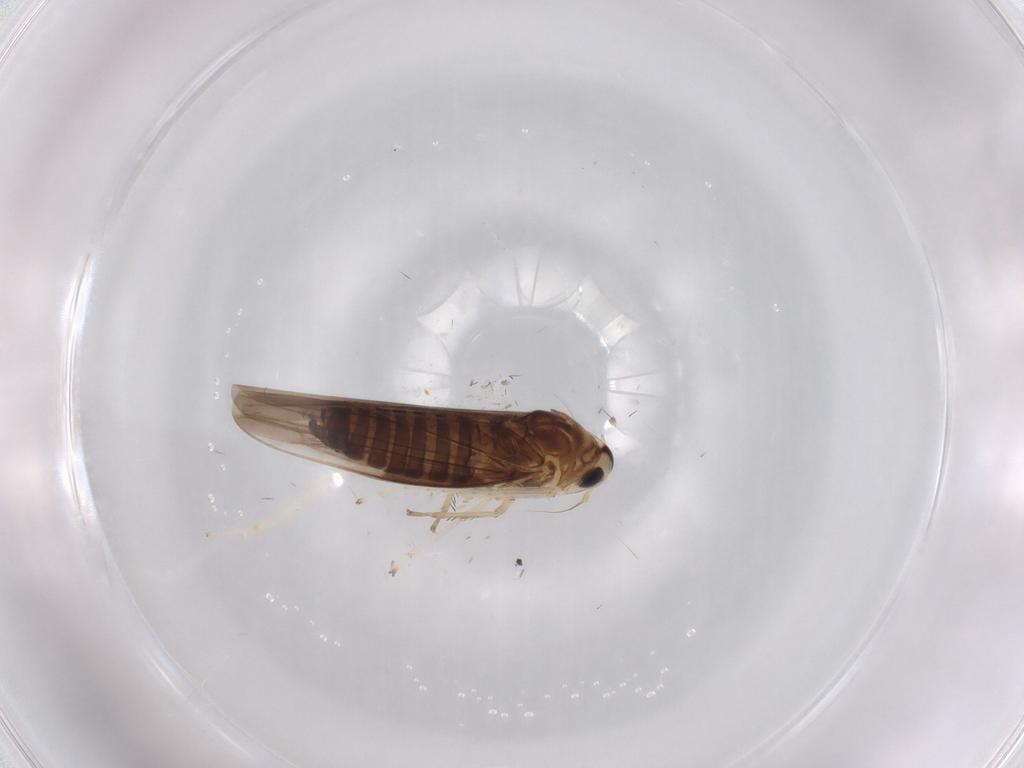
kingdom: Animalia
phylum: Arthropoda
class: Insecta
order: Hemiptera
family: Cicadellidae
